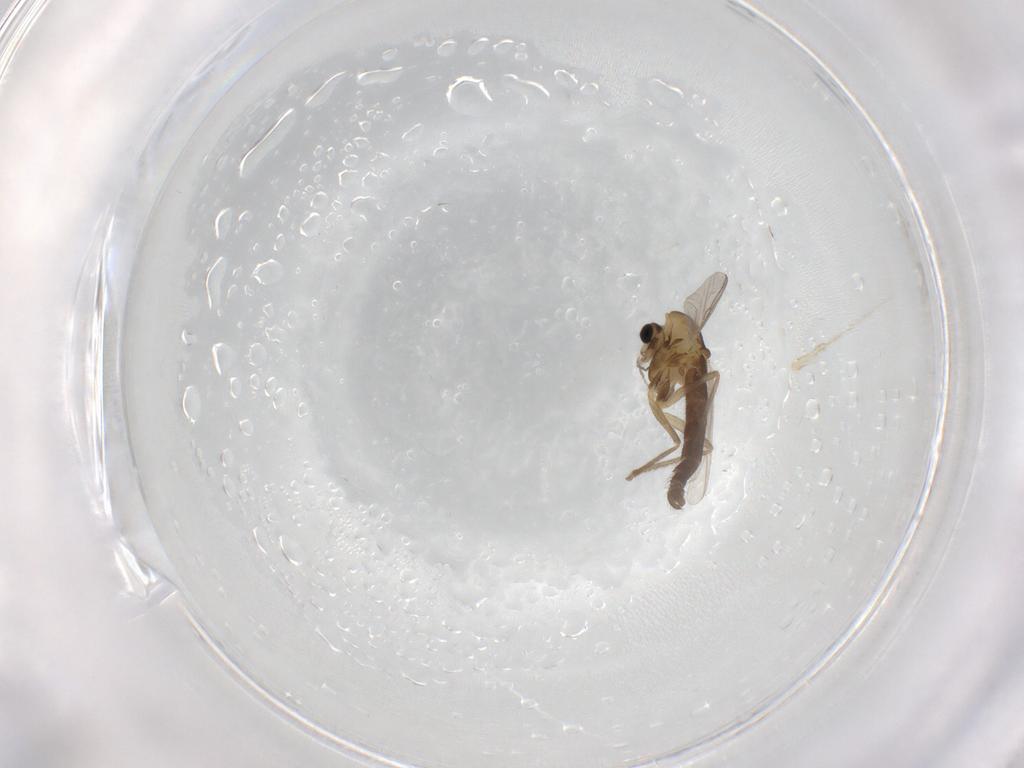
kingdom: Animalia
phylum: Arthropoda
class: Insecta
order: Diptera
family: Chironomidae
